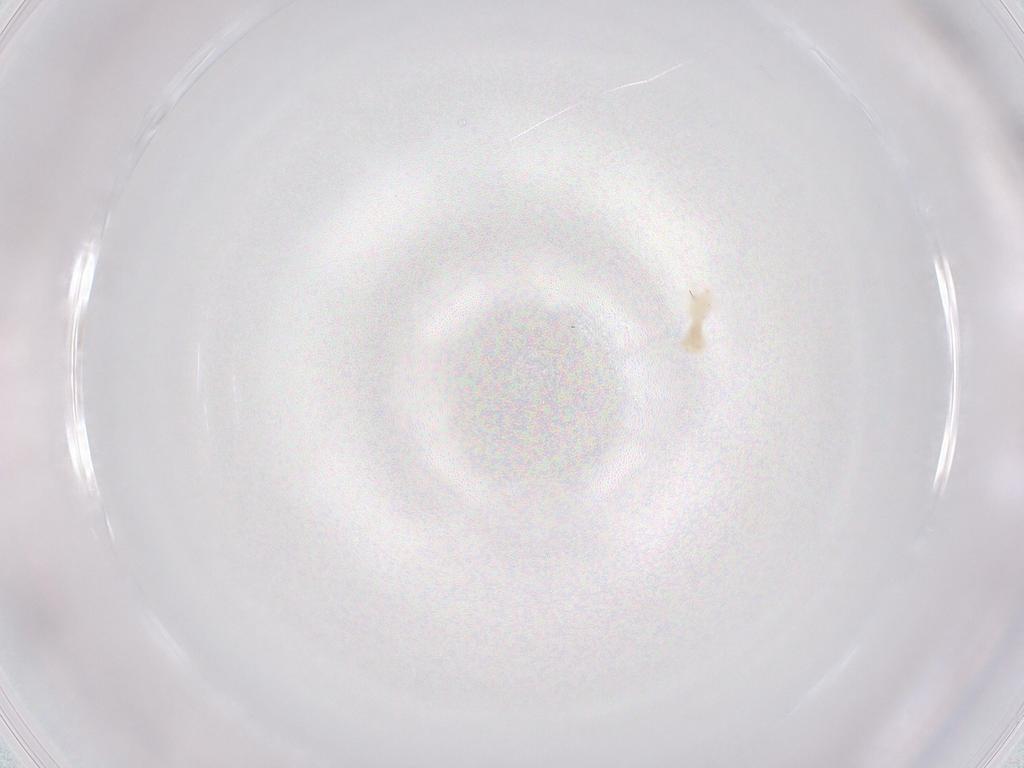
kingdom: Animalia
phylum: Arthropoda
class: Arachnida
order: Trombidiformes
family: Anystidae
